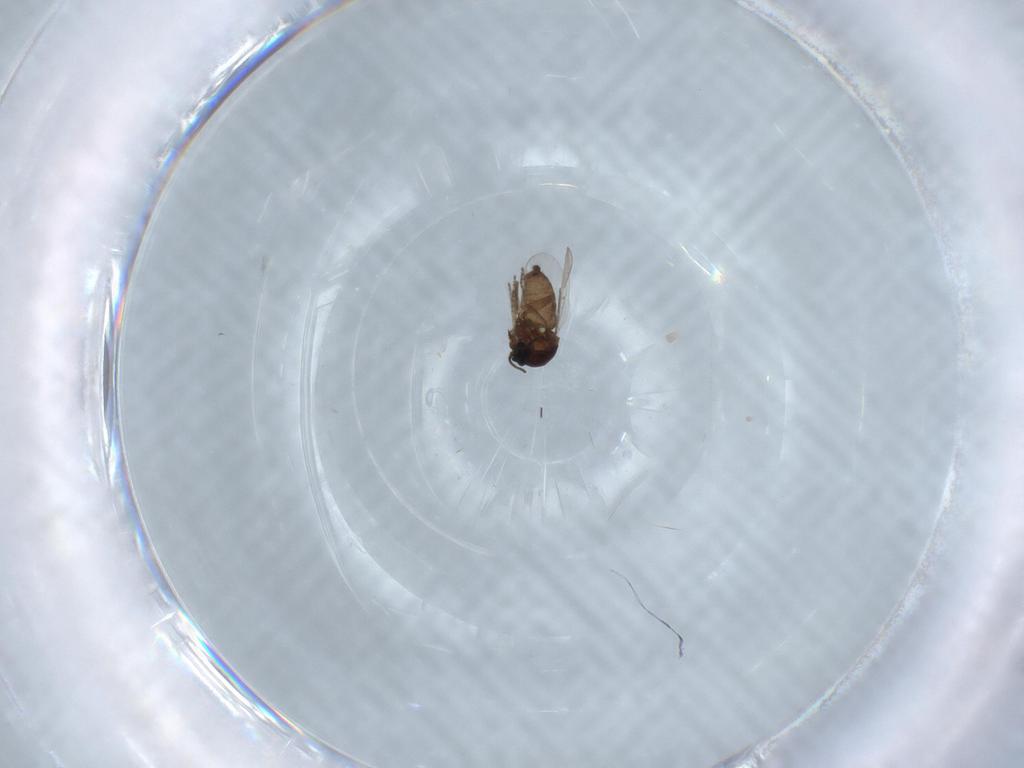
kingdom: Animalia
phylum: Arthropoda
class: Insecta
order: Diptera
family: Ceratopogonidae
